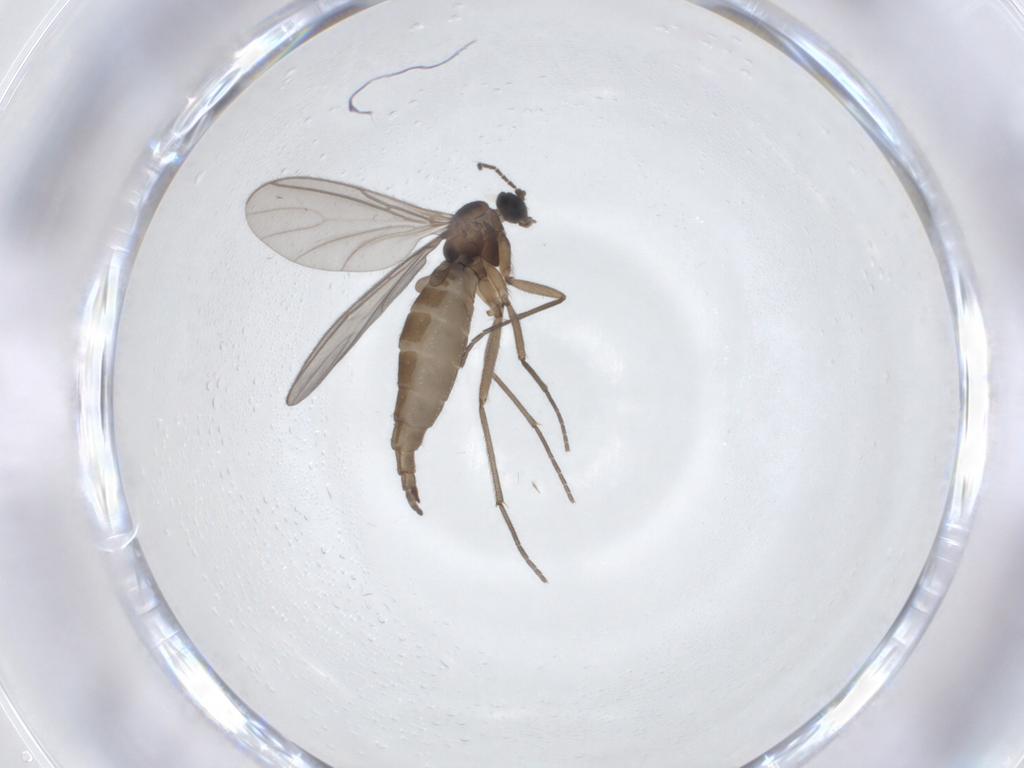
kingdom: Animalia
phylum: Arthropoda
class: Insecta
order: Diptera
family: Sciaridae
